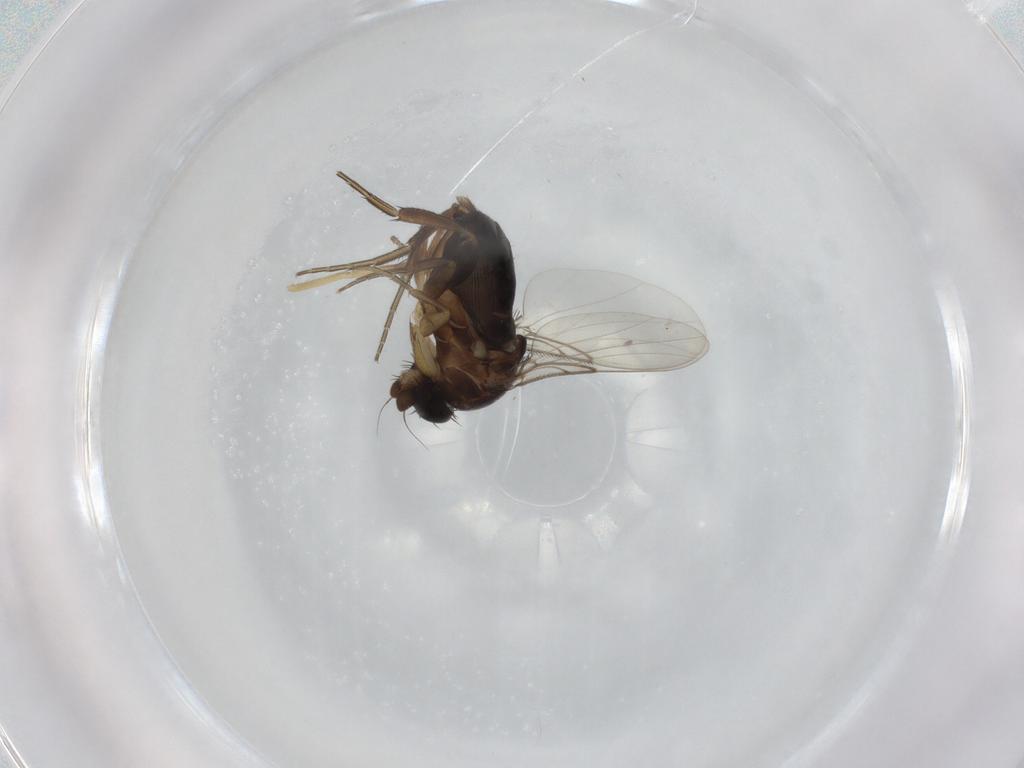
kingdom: Animalia
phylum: Arthropoda
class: Insecta
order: Diptera
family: Phoridae
